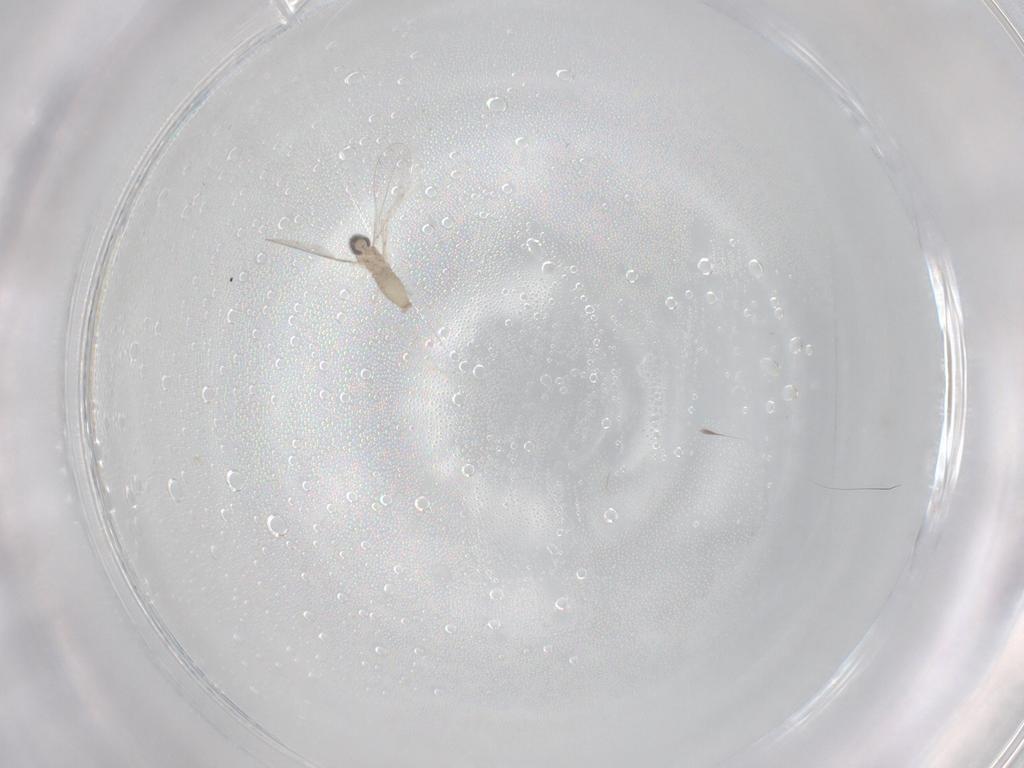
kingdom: Animalia
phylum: Arthropoda
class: Insecta
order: Diptera
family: Cecidomyiidae
